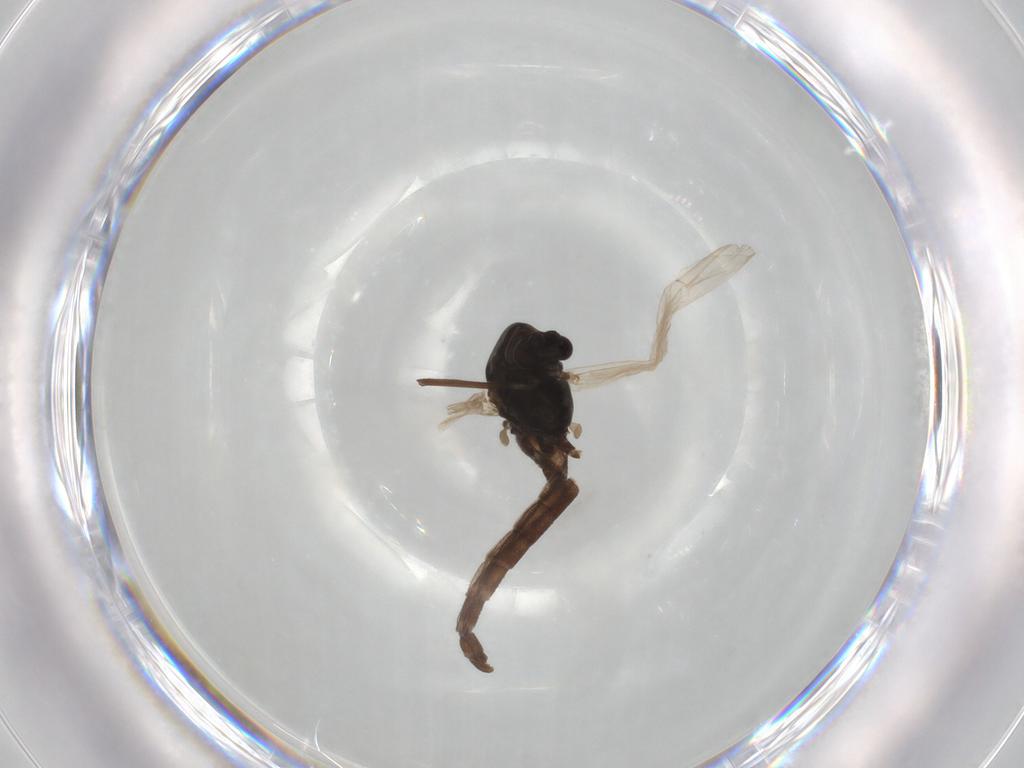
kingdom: Animalia
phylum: Arthropoda
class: Insecta
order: Diptera
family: Chironomidae
